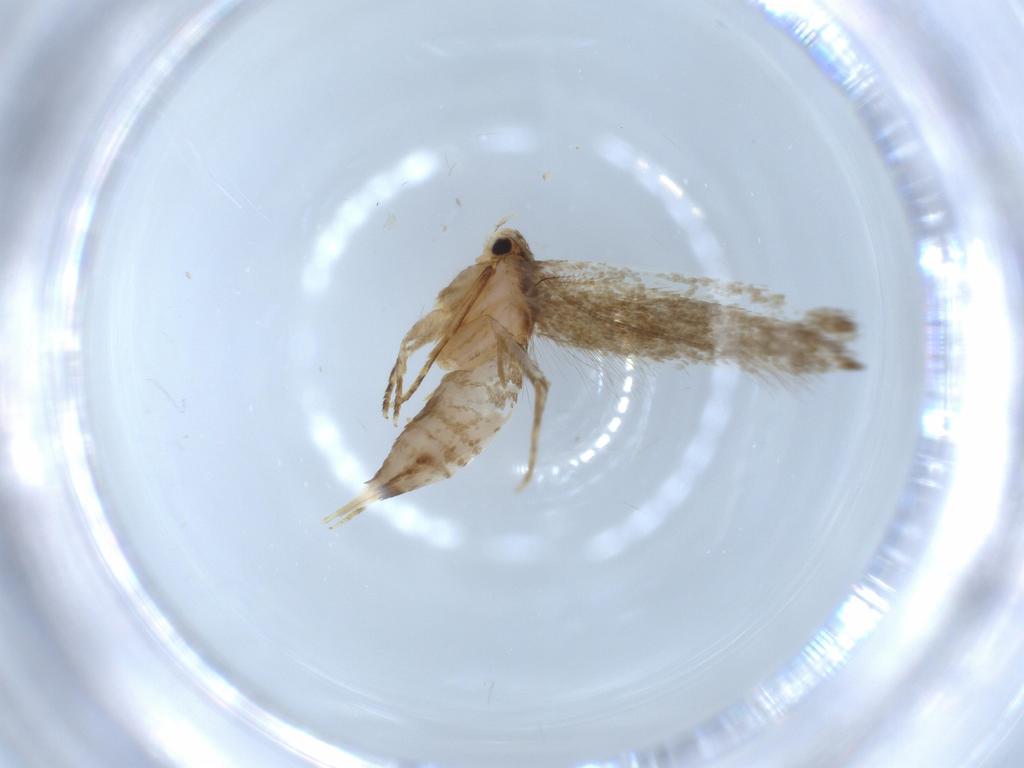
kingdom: Animalia
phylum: Arthropoda
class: Insecta
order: Lepidoptera
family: Tineidae
